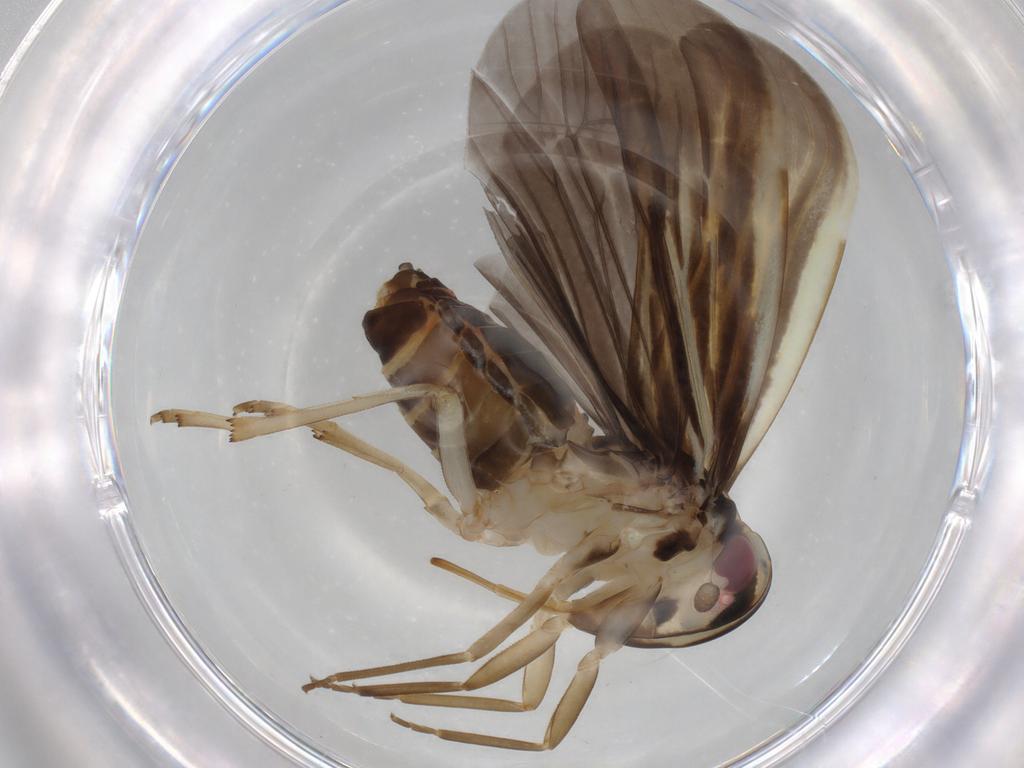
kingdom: Animalia
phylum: Arthropoda
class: Insecta
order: Hemiptera
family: Achilidae
